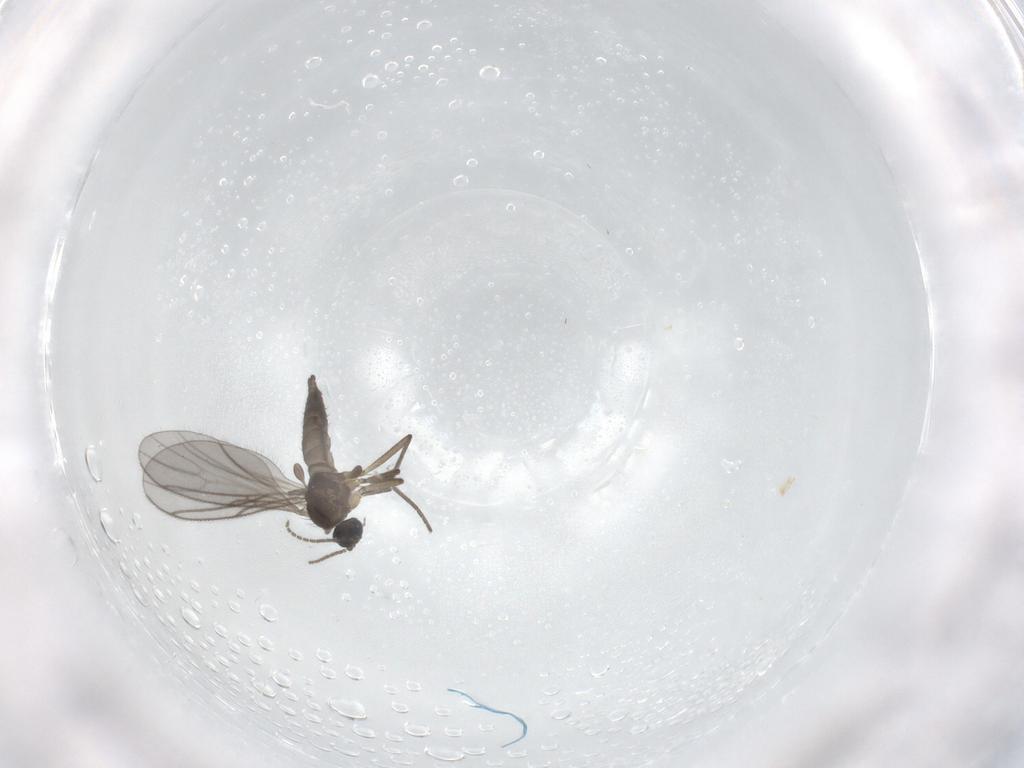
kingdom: Animalia
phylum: Arthropoda
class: Insecta
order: Diptera
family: Sciaridae
